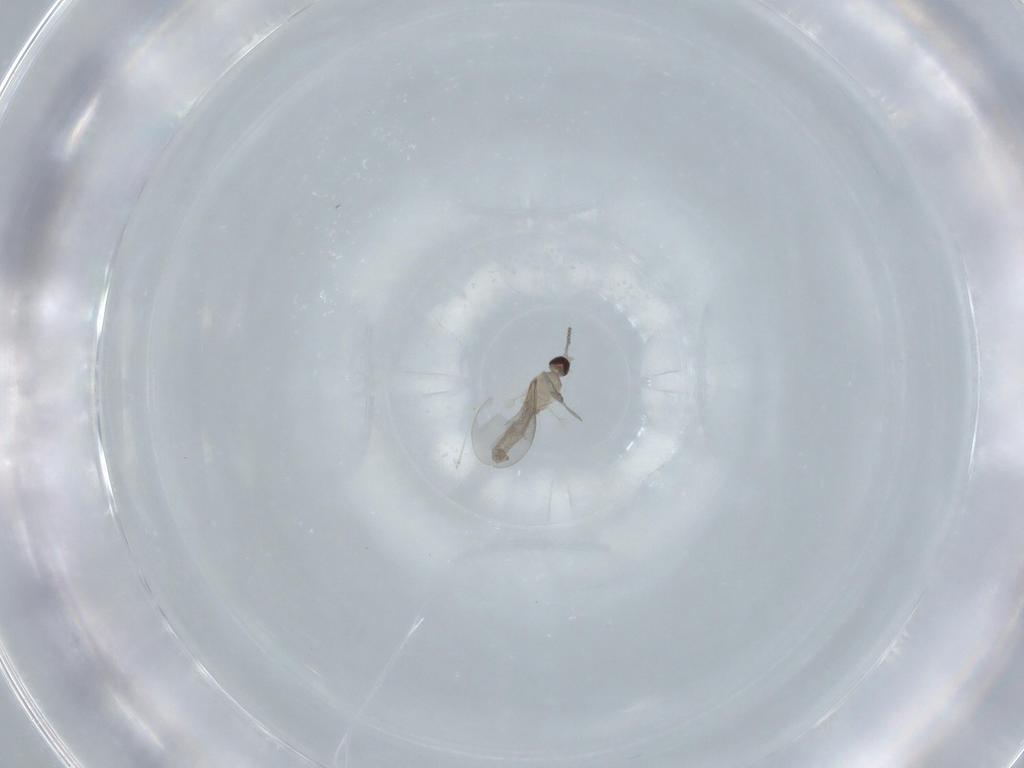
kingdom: Animalia
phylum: Arthropoda
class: Insecta
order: Diptera
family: Cecidomyiidae
